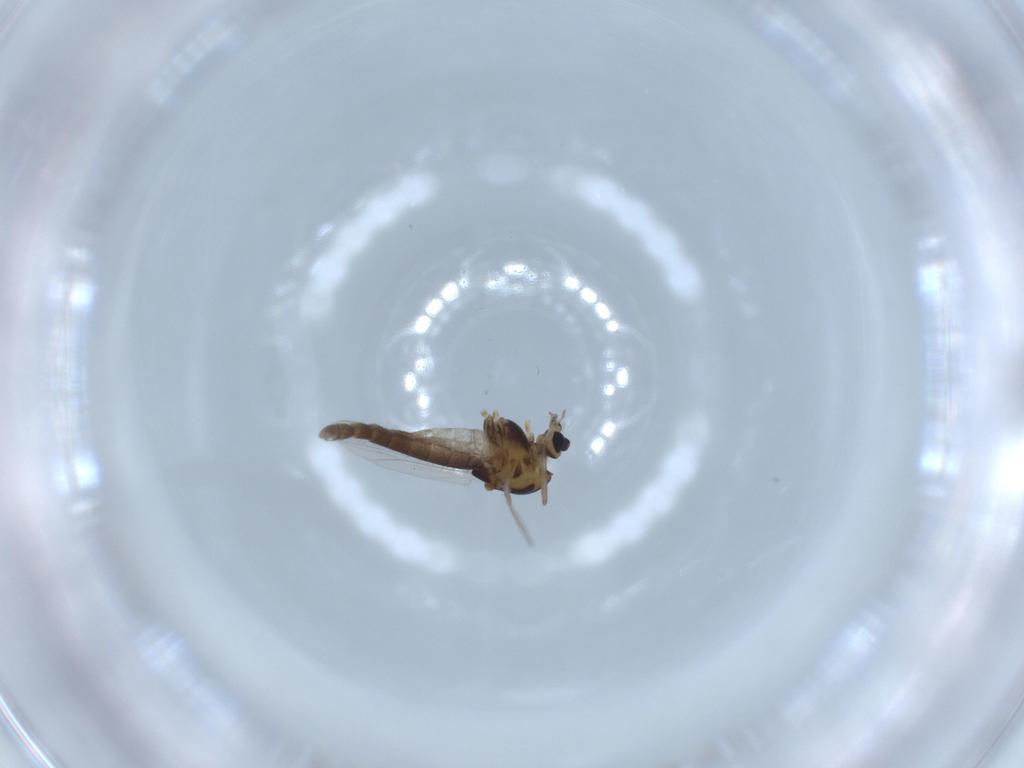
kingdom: Animalia
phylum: Arthropoda
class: Insecta
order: Diptera
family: Chironomidae
